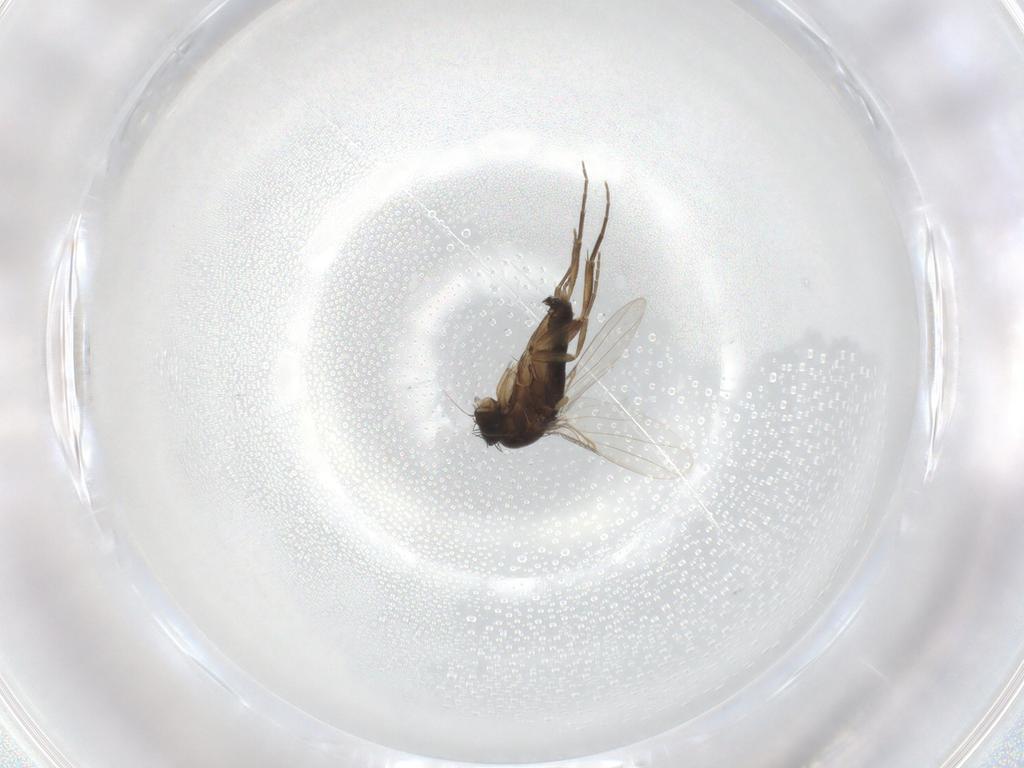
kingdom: Animalia
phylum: Arthropoda
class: Insecta
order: Diptera
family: Phoridae
